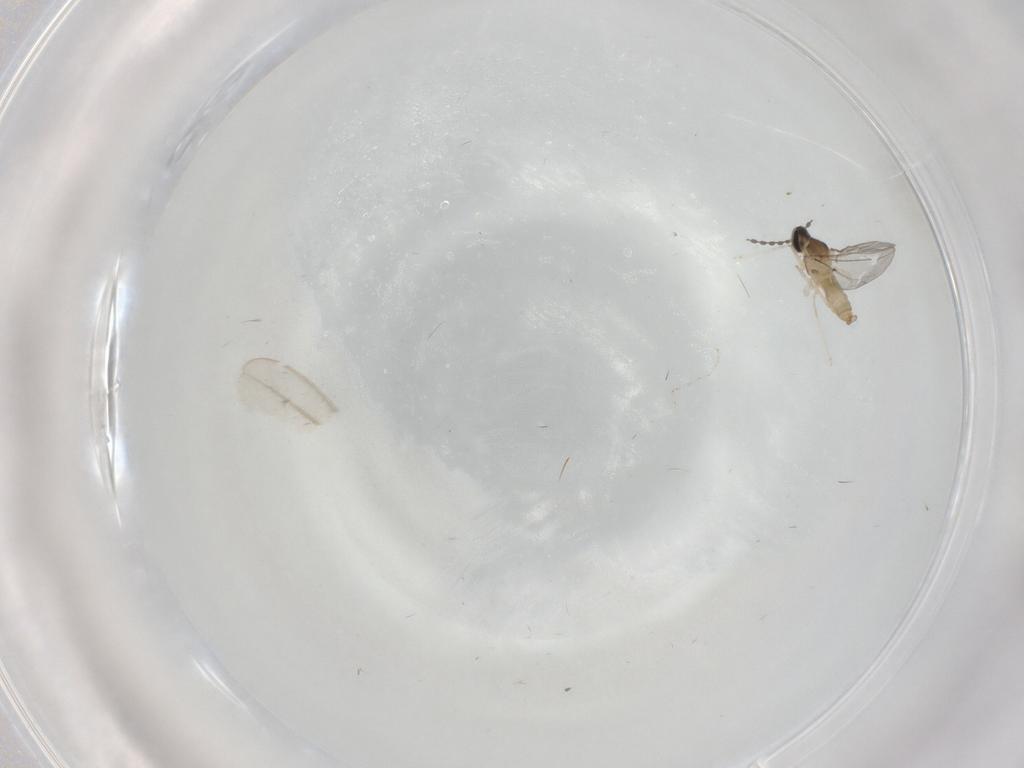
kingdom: Animalia
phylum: Arthropoda
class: Insecta
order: Diptera
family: Cecidomyiidae
